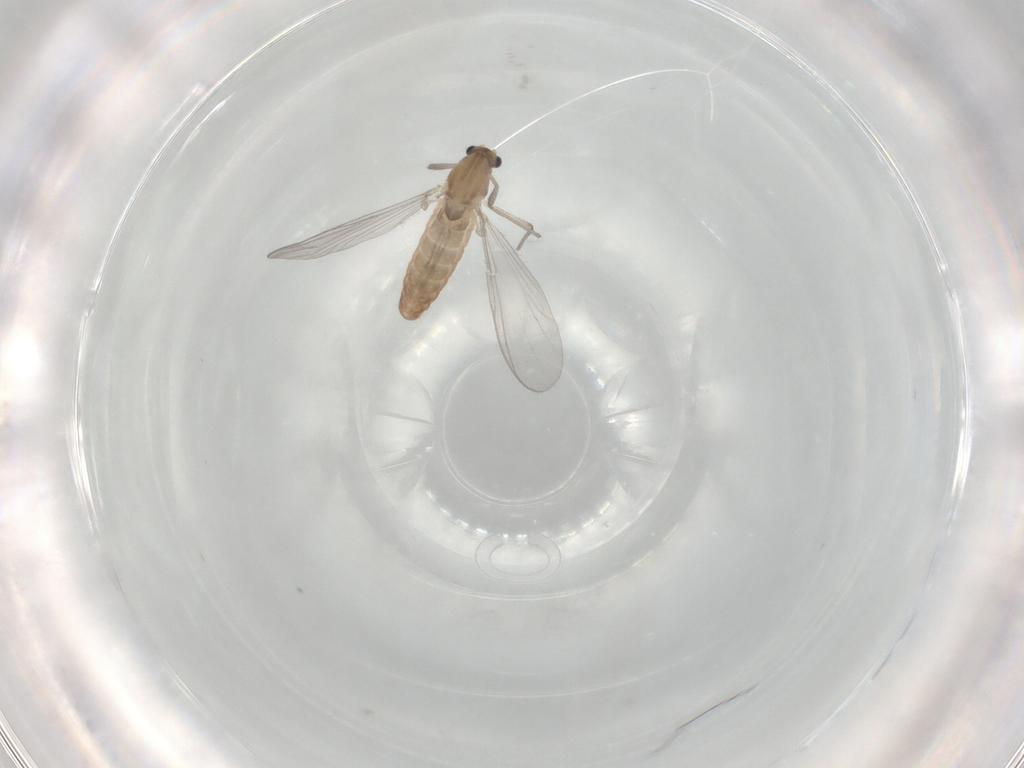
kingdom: Animalia
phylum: Arthropoda
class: Insecta
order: Diptera
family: Chironomidae
